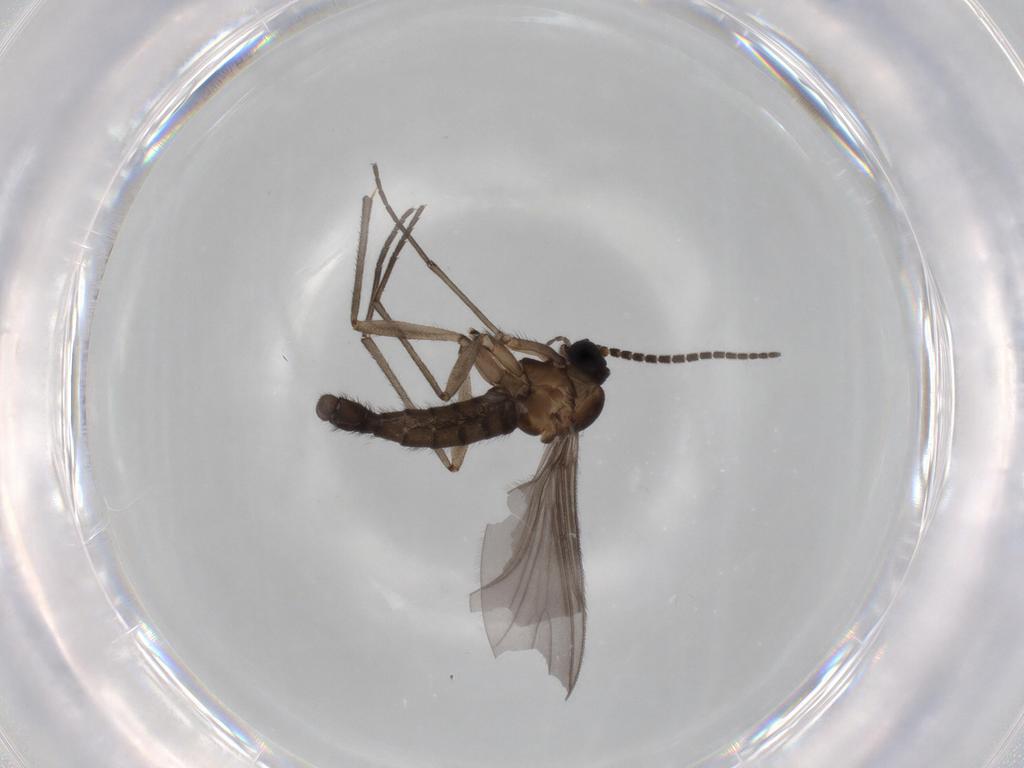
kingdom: Animalia
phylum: Arthropoda
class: Insecta
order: Diptera
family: Sciaridae
